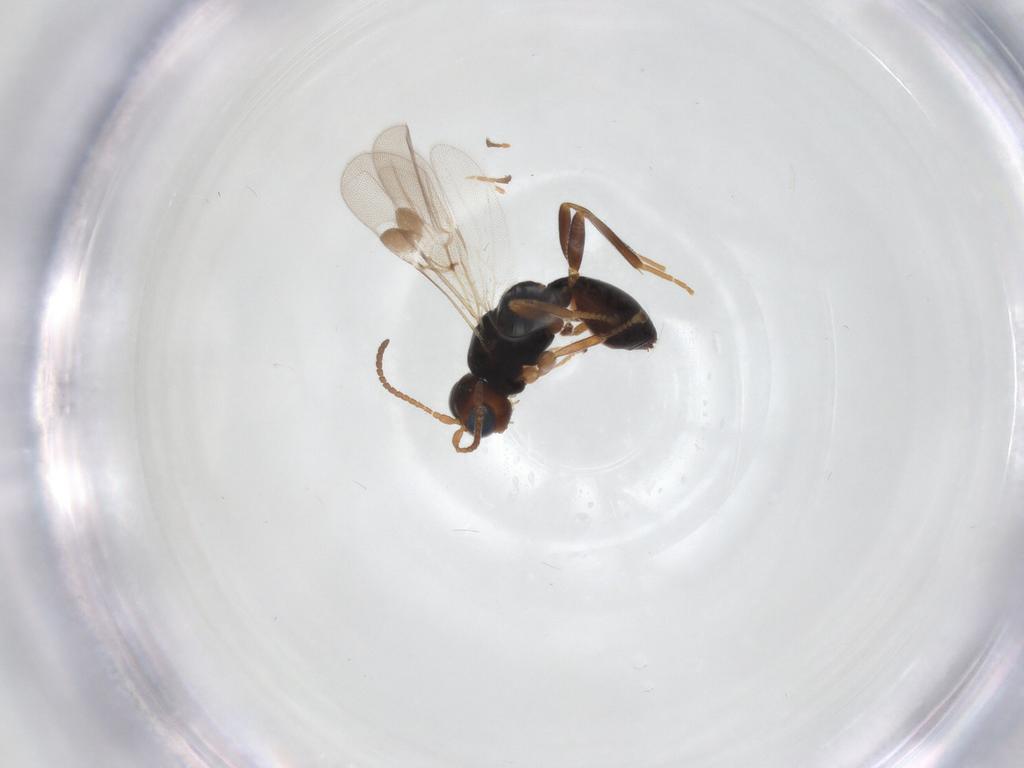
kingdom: Animalia
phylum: Arthropoda
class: Insecta
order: Hymenoptera
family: Braconidae
